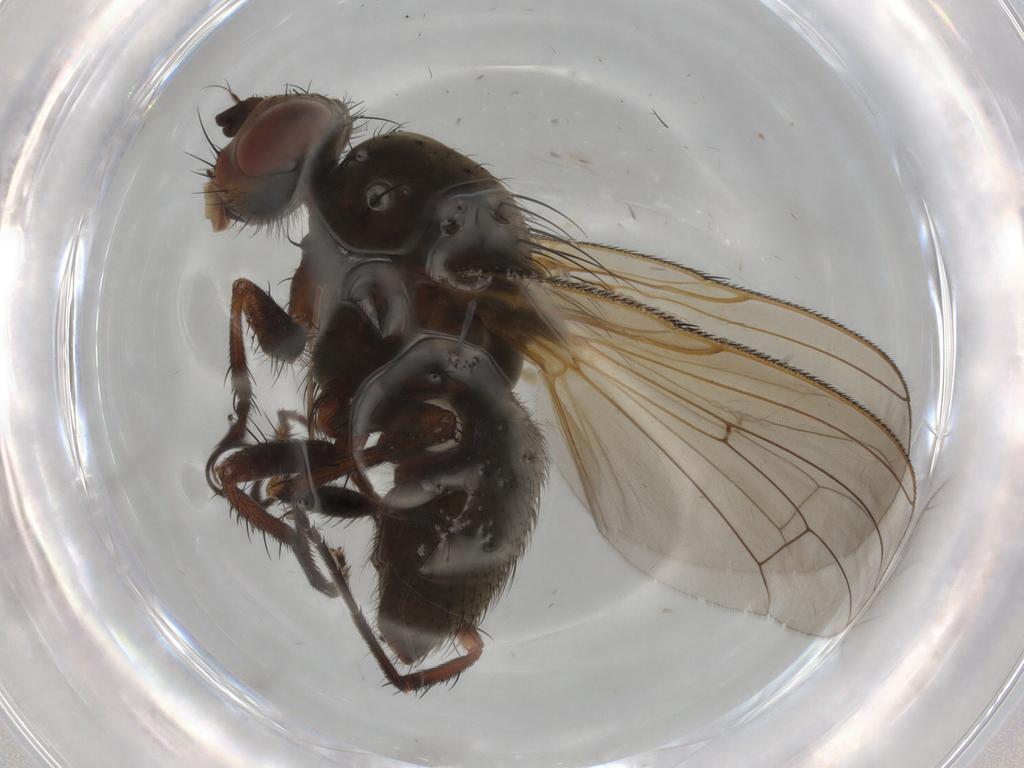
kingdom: Animalia
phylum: Arthropoda
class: Insecta
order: Diptera
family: Anthomyiidae
